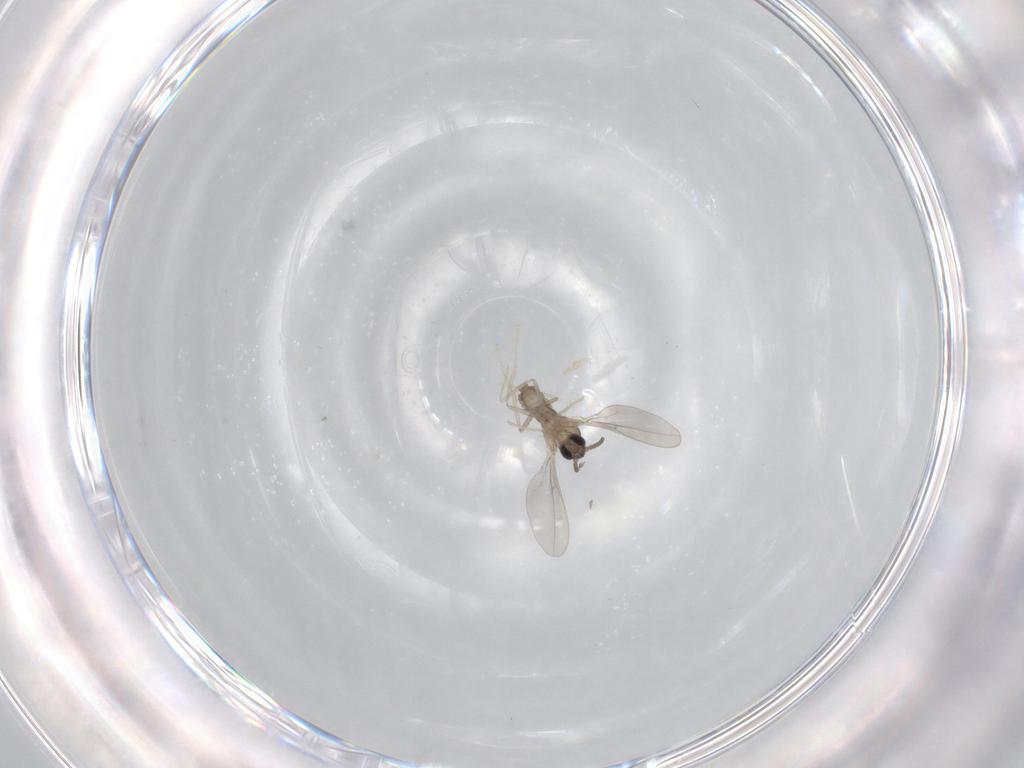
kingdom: Animalia
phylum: Arthropoda
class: Insecta
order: Diptera
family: Cecidomyiidae
